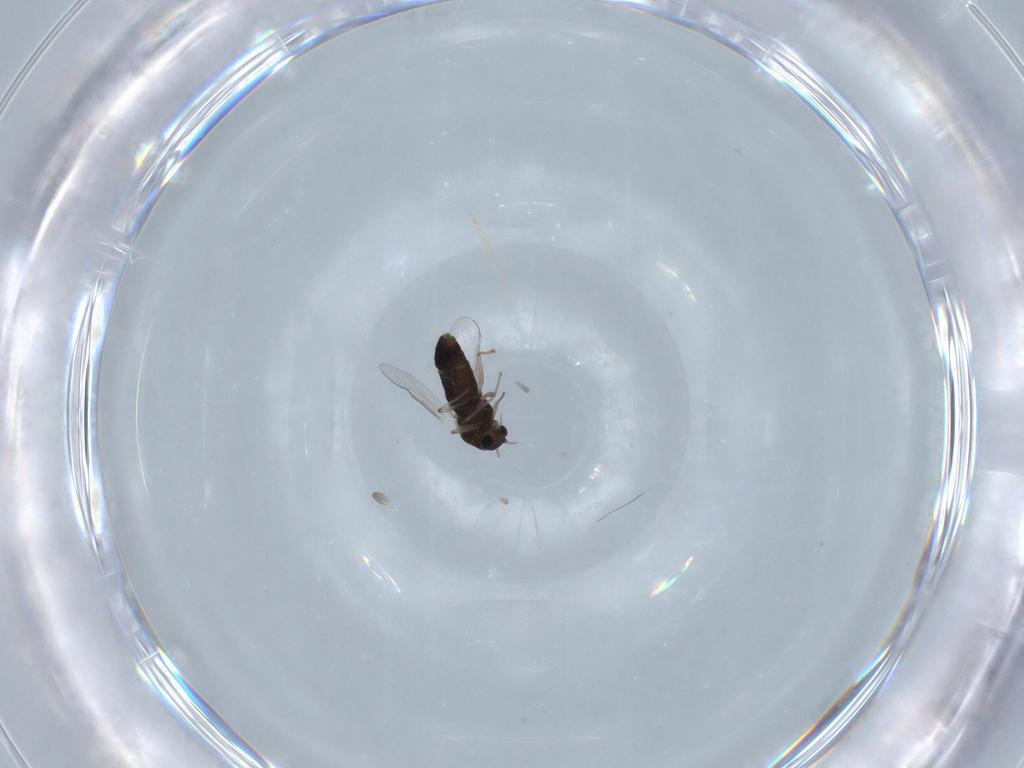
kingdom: Animalia
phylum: Arthropoda
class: Insecta
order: Diptera
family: Chironomidae
